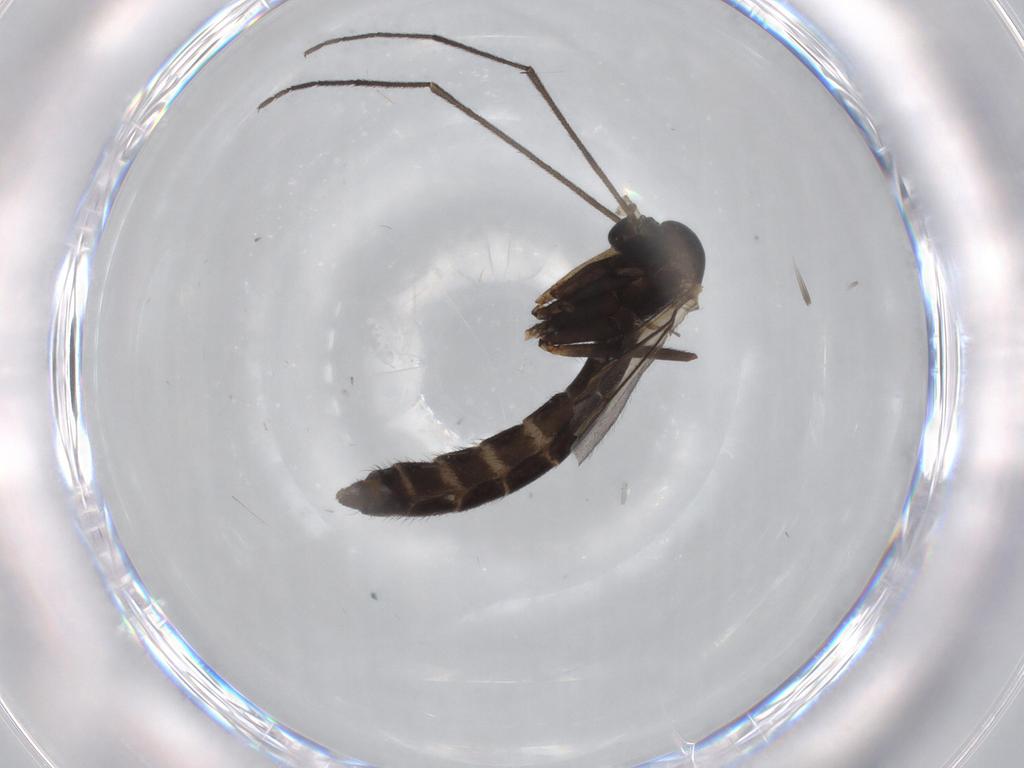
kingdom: Animalia
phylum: Arthropoda
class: Insecta
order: Diptera
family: Ditomyiidae
